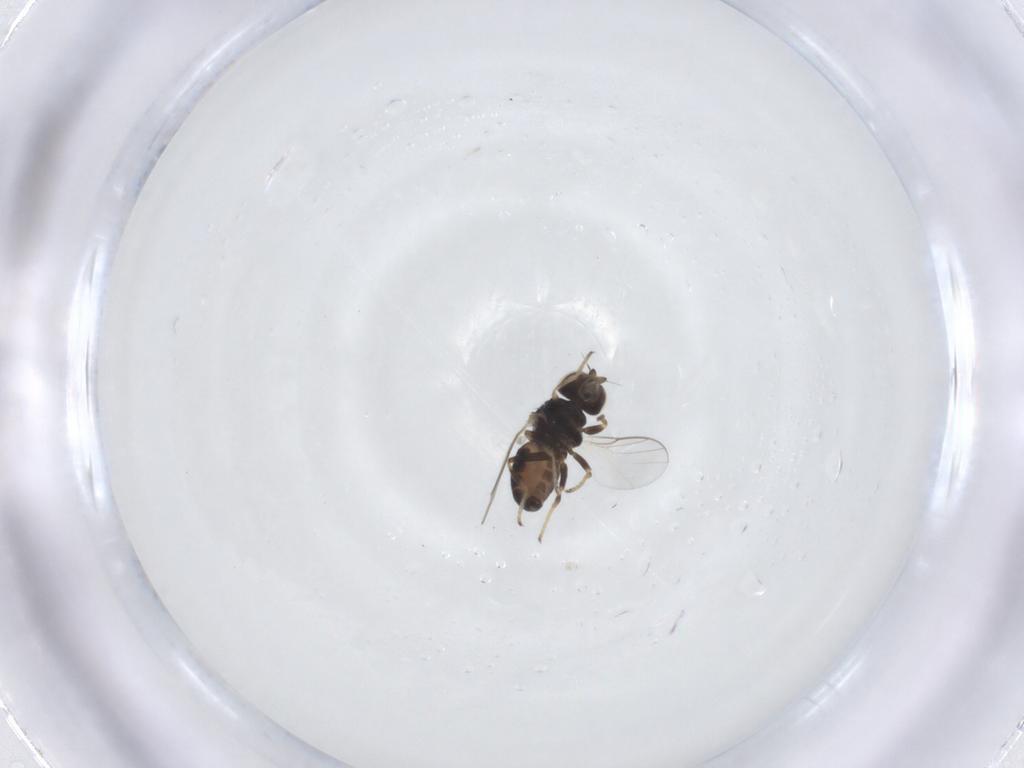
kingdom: Animalia
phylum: Arthropoda
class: Insecta
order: Diptera
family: Chloropidae
